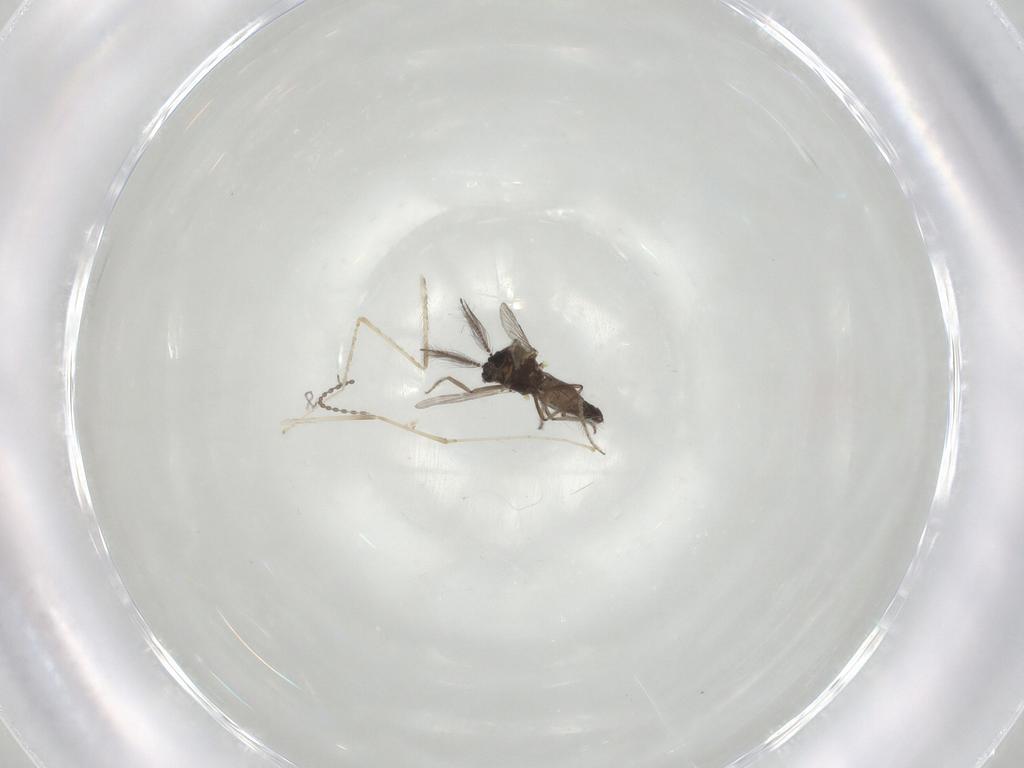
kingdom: Animalia
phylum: Arthropoda
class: Insecta
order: Diptera
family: Ceratopogonidae
